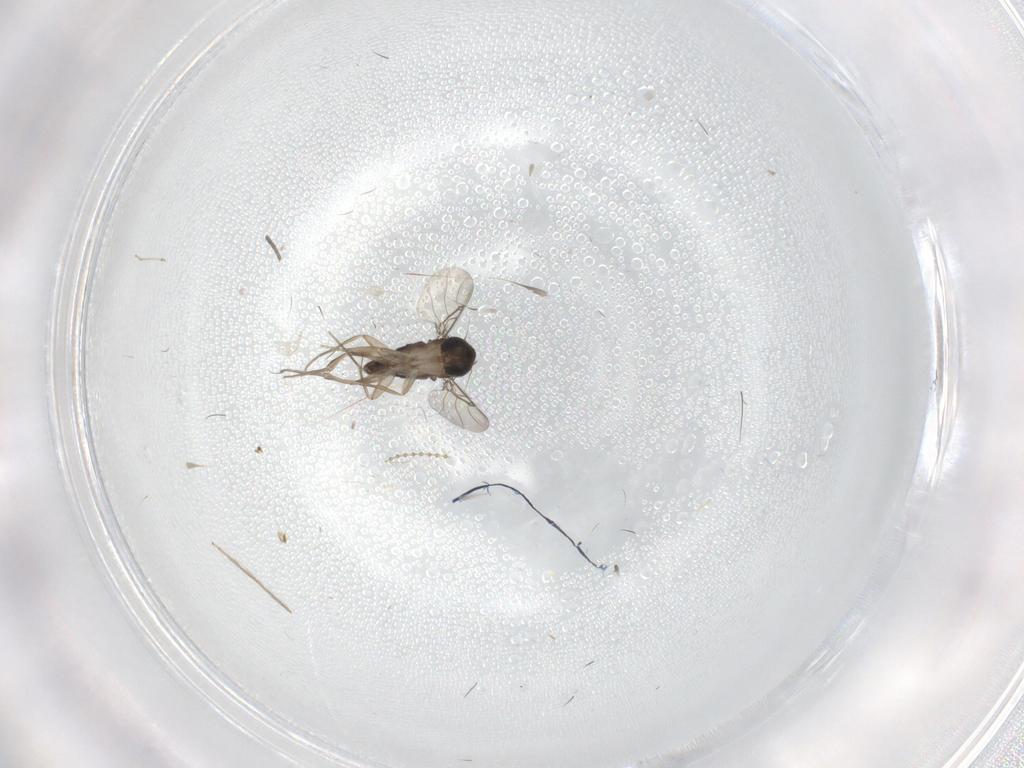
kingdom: Animalia
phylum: Arthropoda
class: Insecta
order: Diptera
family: Phoridae
